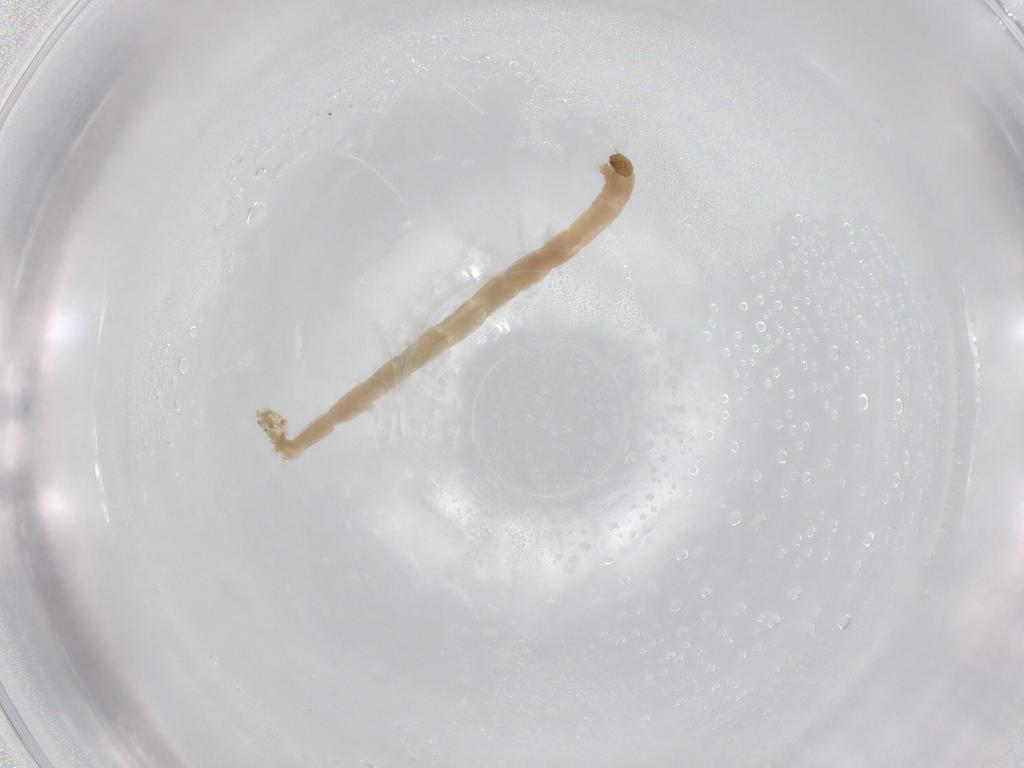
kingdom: Animalia
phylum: Arthropoda
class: Insecta
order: Diptera
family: Chironomidae
